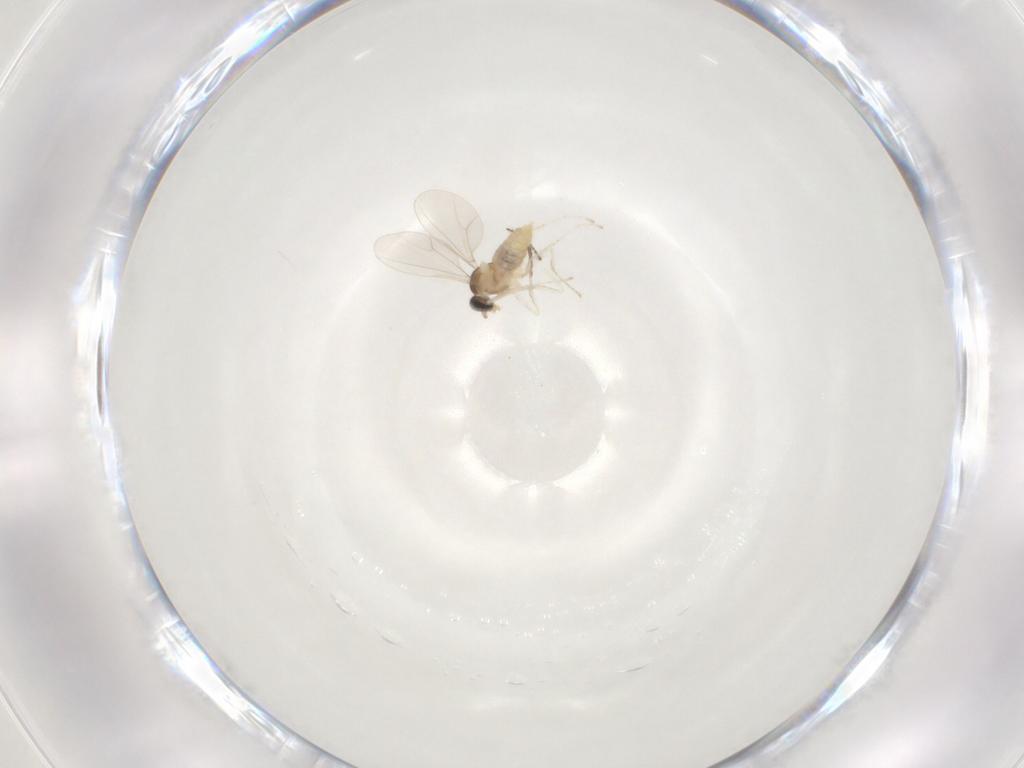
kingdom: Animalia
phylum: Arthropoda
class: Insecta
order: Diptera
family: Cecidomyiidae
